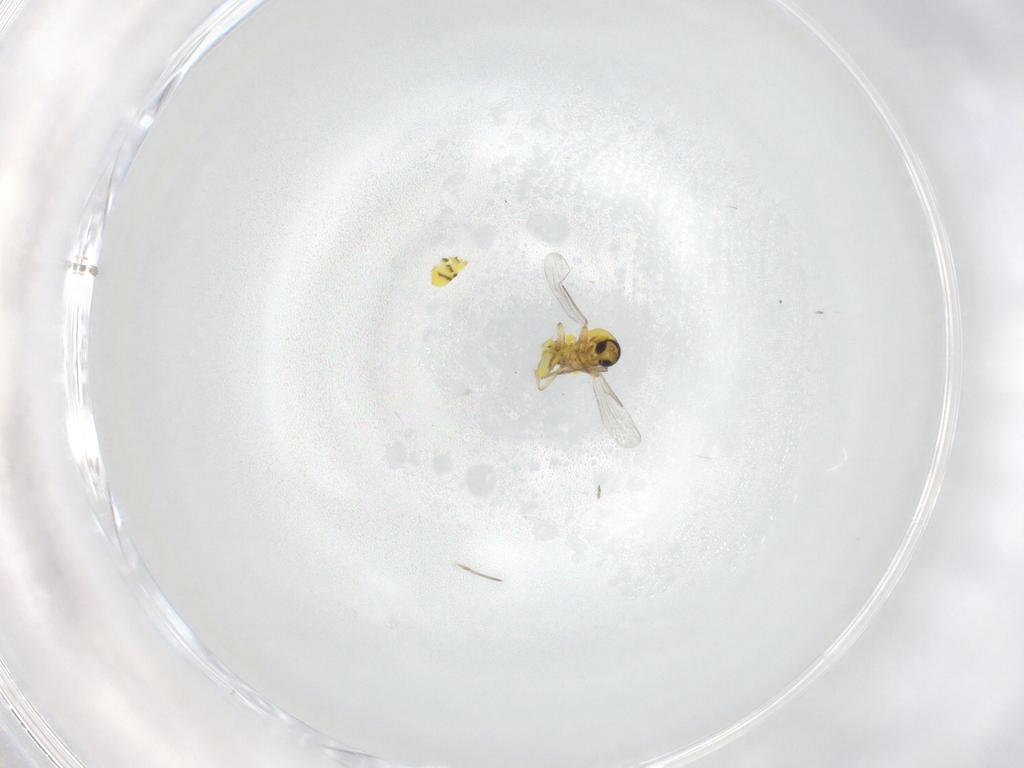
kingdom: Animalia
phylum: Arthropoda
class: Insecta
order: Diptera
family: Ceratopogonidae
